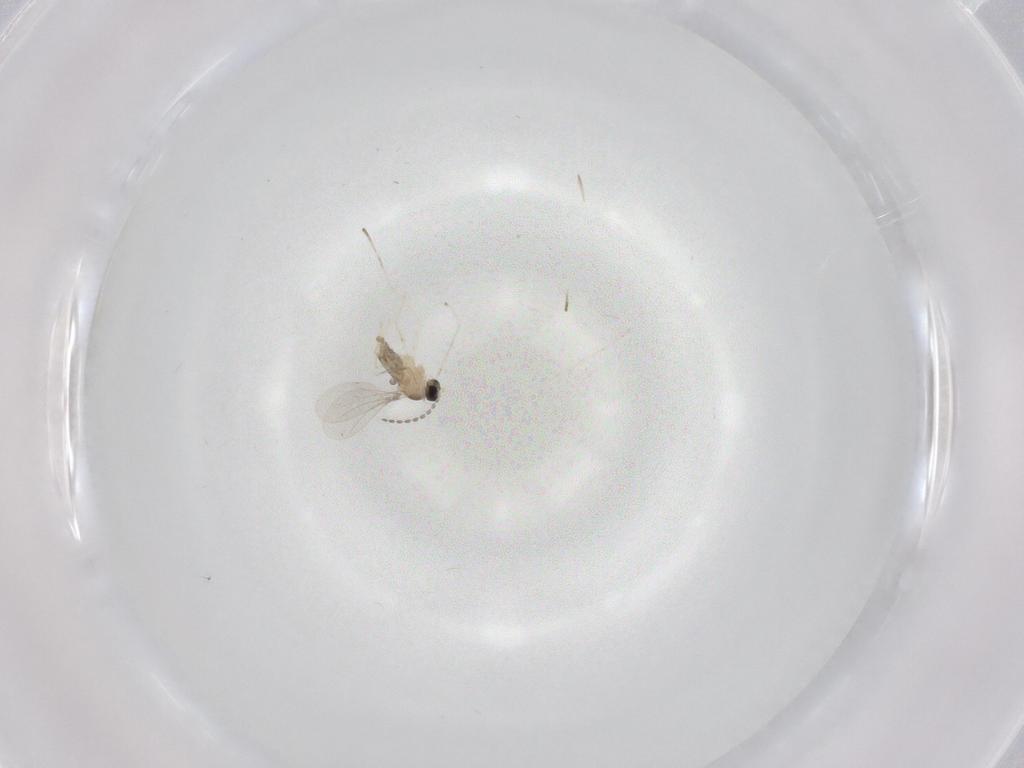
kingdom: Animalia
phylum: Arthropoda
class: Insecta
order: Diptera
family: Cecidomyiidae
